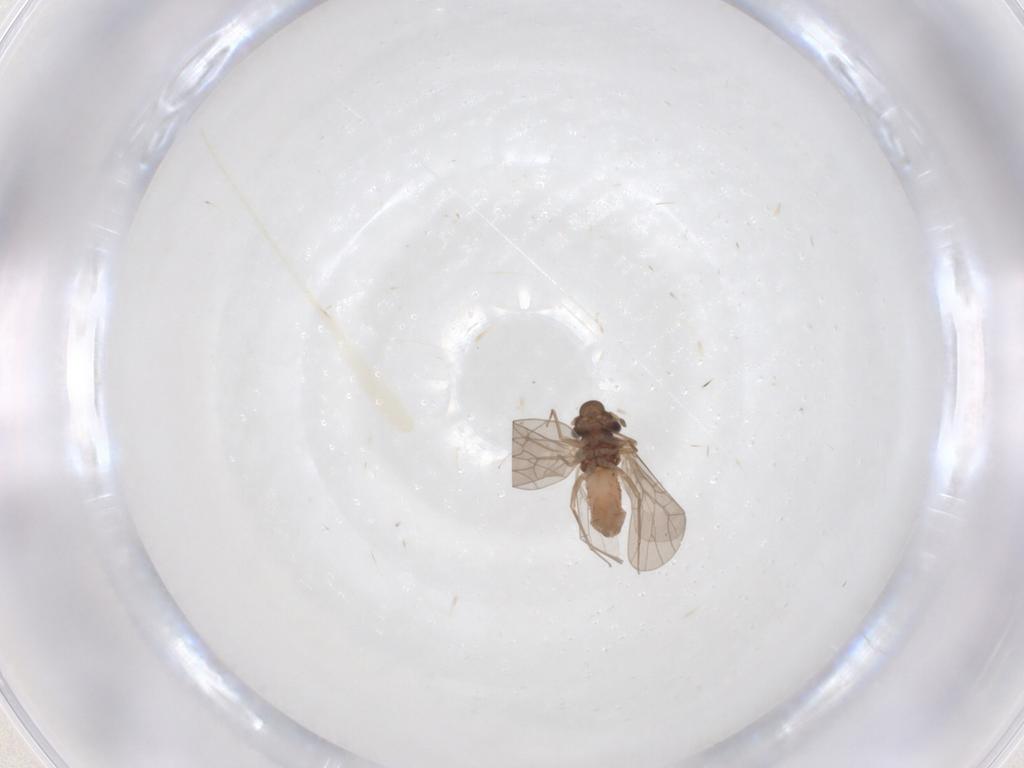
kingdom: Animalia
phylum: Arthropoda
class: Insecta
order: Psocodea
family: Lepidopsocidae
